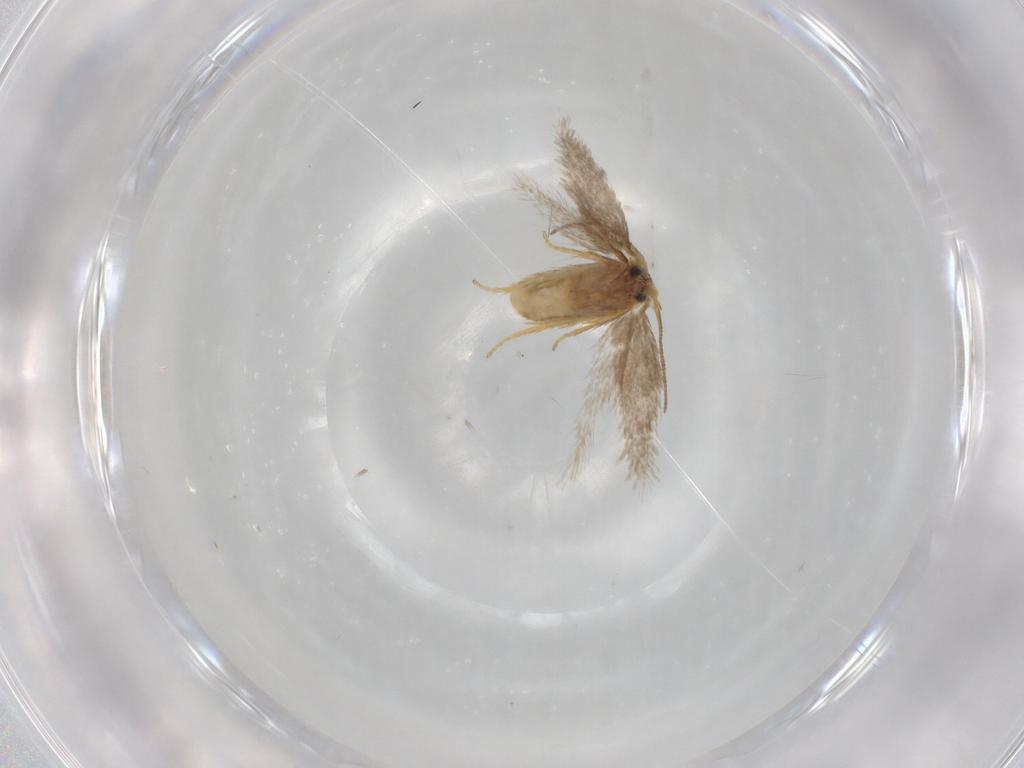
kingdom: Animalia
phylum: Arthropoda
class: Insecta
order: Lepidoptera
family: Nepticulidae
